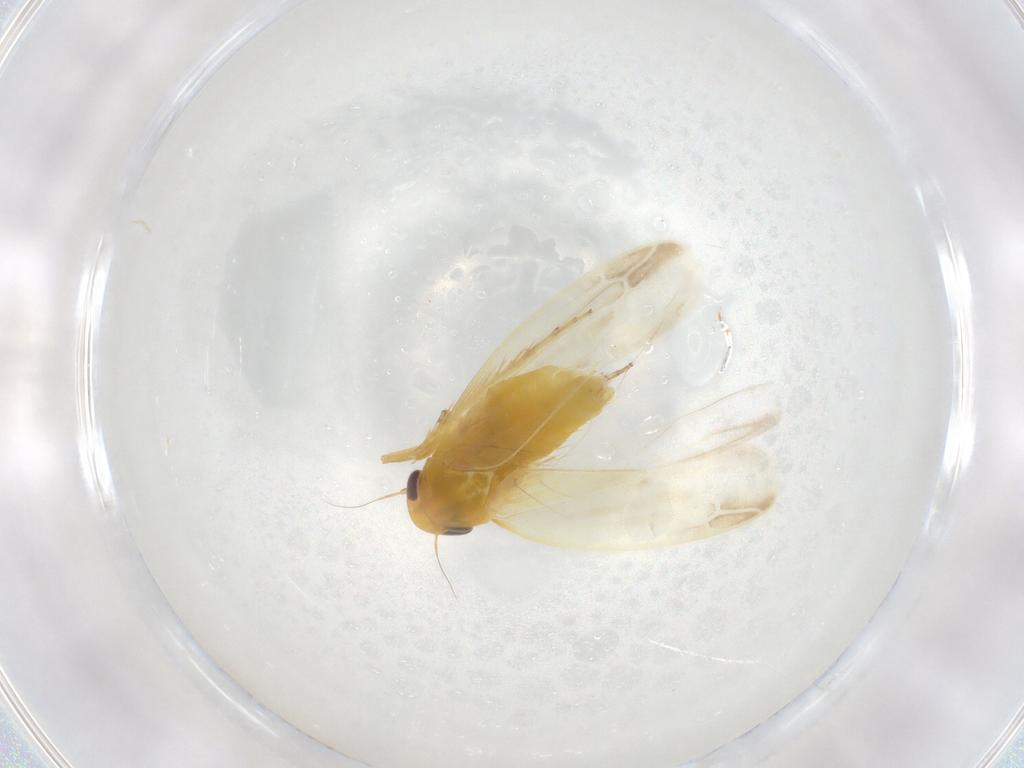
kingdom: Animalia
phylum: Arthropoda
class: Insecta
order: Hemiptera
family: Cicadellidae
